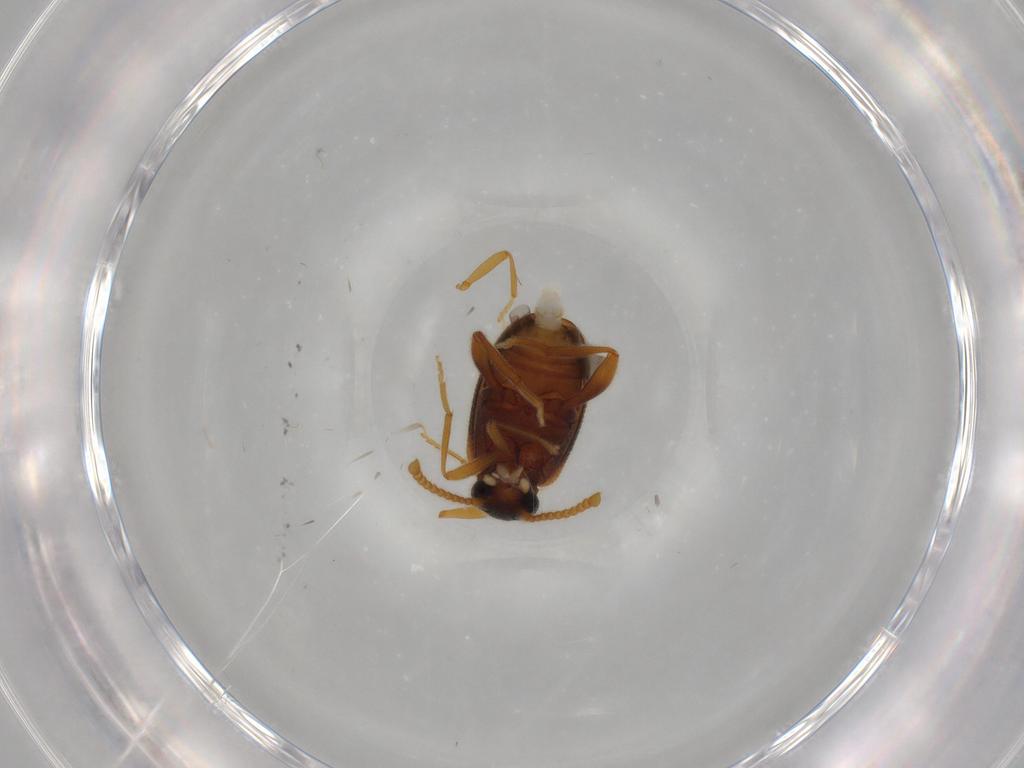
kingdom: Animalia
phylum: Arthropoda
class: Insecta
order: Coleoptera
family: Aderidae
